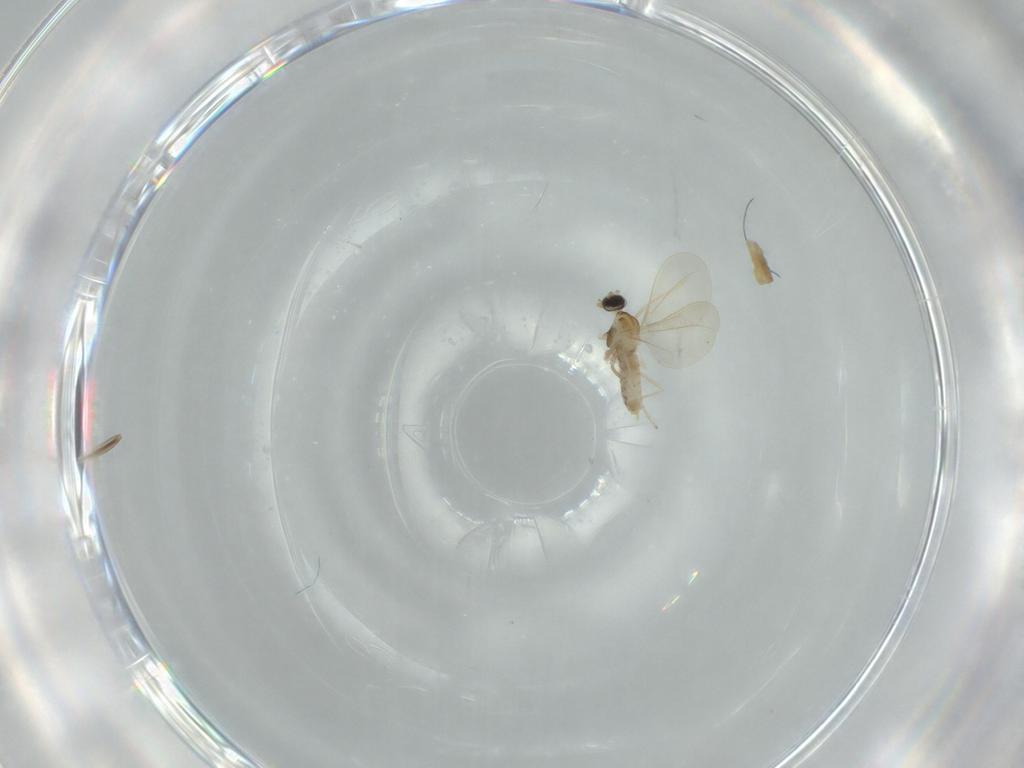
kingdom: Animalia
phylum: Arthropoda
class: Insecta
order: Diptera
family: Cecidomyiidae
